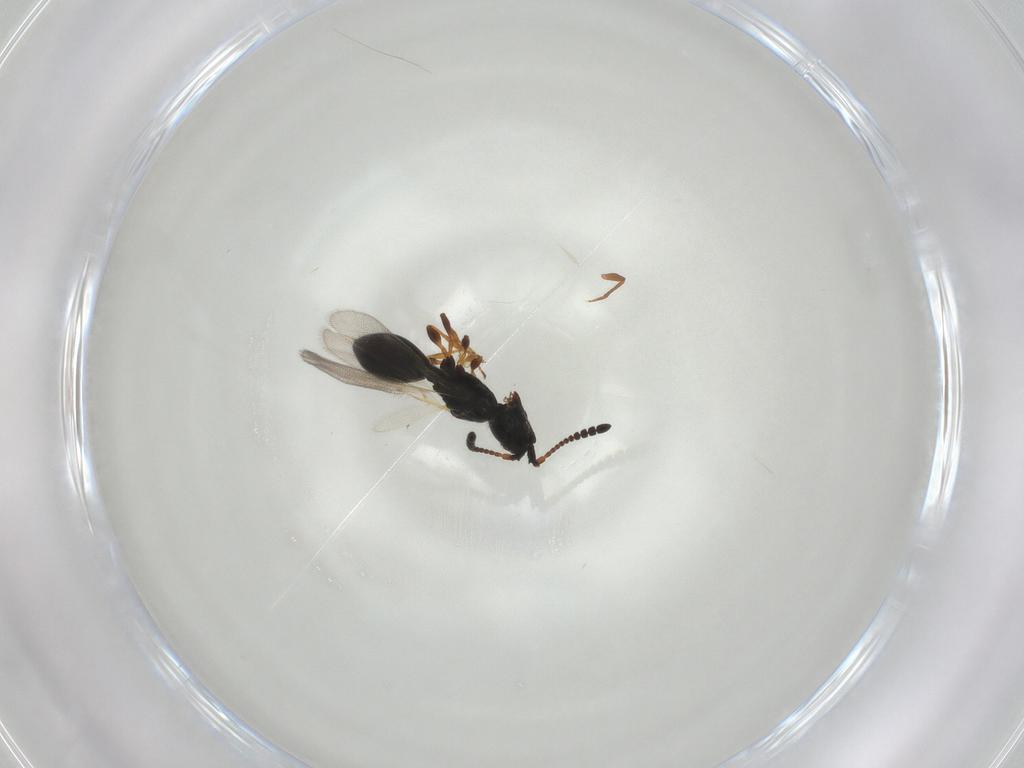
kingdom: Animalia
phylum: Arthropoda
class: Insecta
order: Hymenoptera
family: Diapriidae
